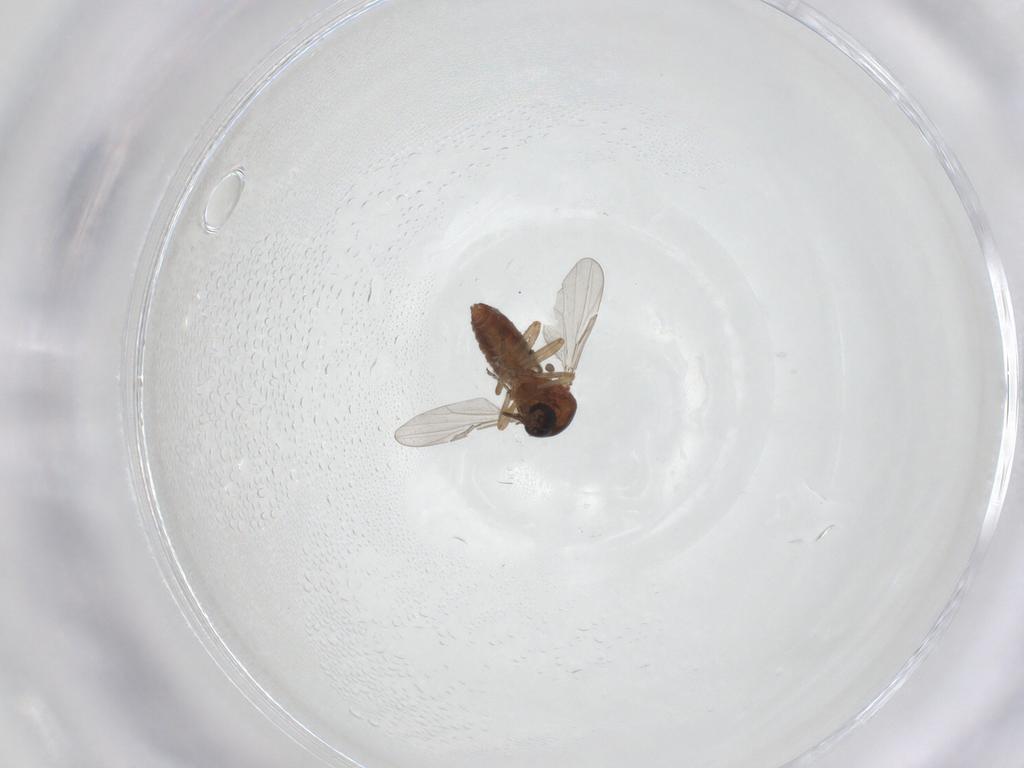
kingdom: Animalia
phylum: Arthropoda
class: Insecta
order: Diptera
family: Ceratopogonidae
